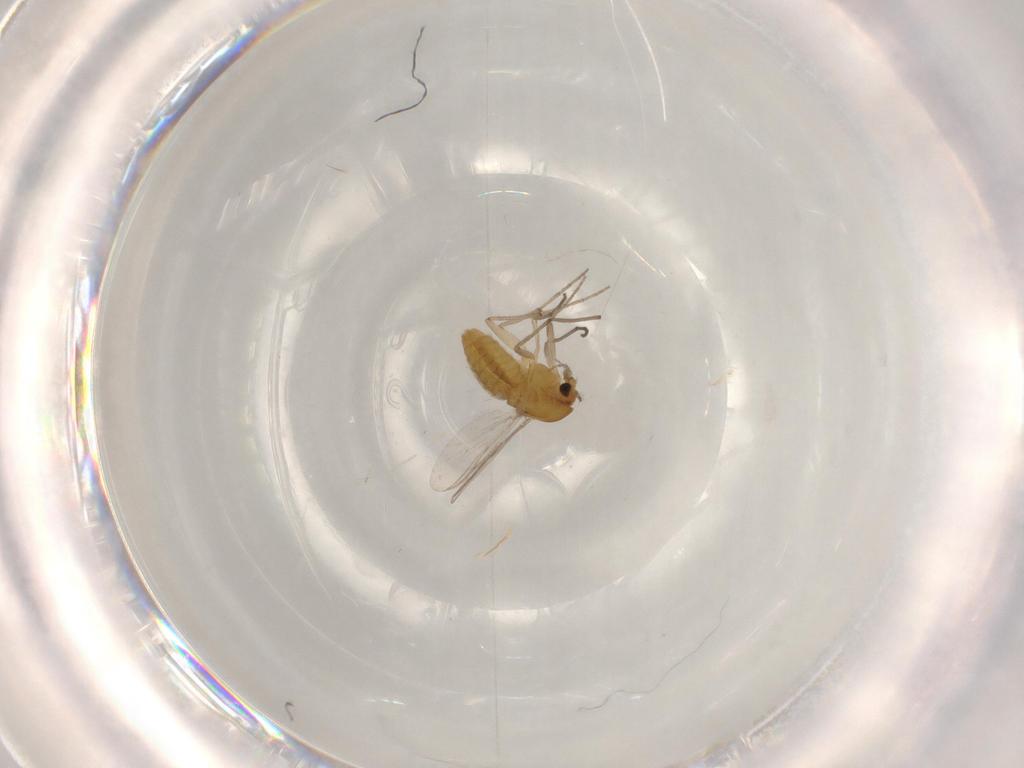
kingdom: Animalia
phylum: Arthropoda
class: Insecta
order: Diptera
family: Chironomidae
